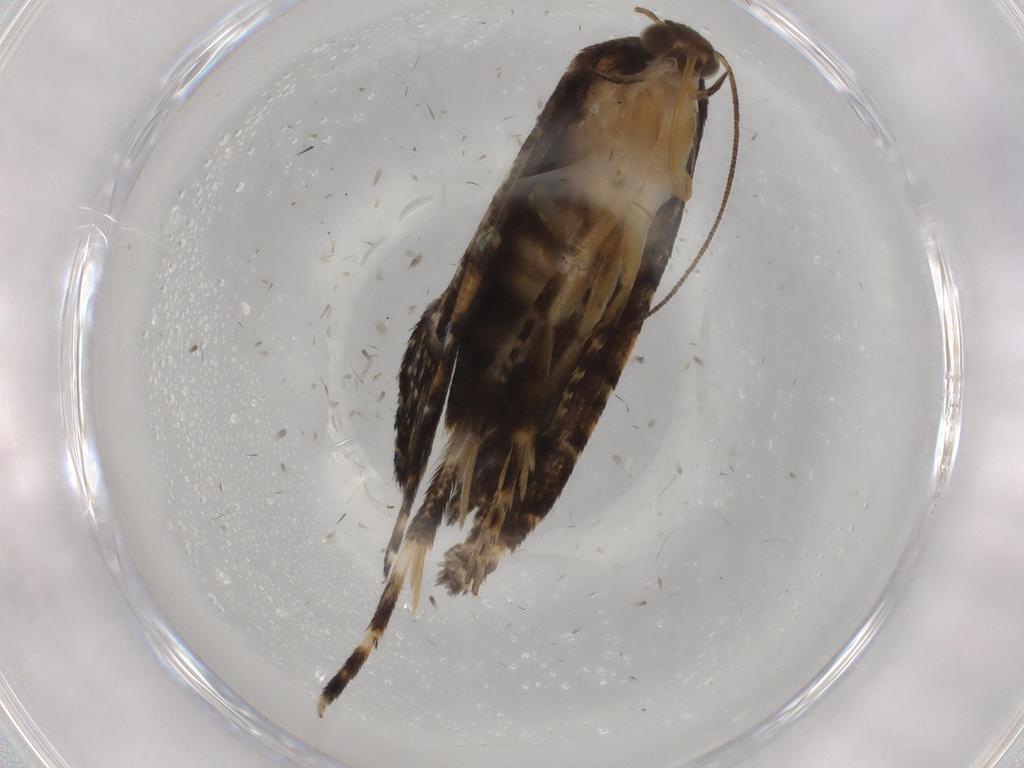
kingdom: Animalia
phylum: Arthropoda
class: Insecta
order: Lepidoptera
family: Glyphipterigidae
